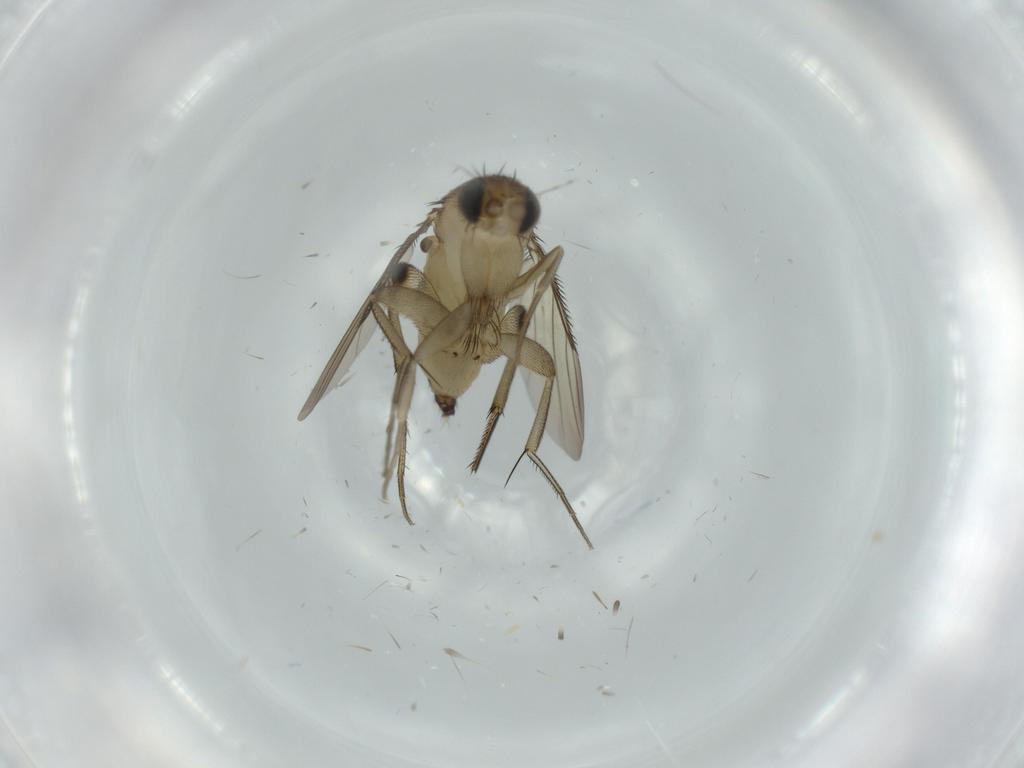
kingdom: Animalia
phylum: Arthropoda
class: Insecta
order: Diptera
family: Phoridae
